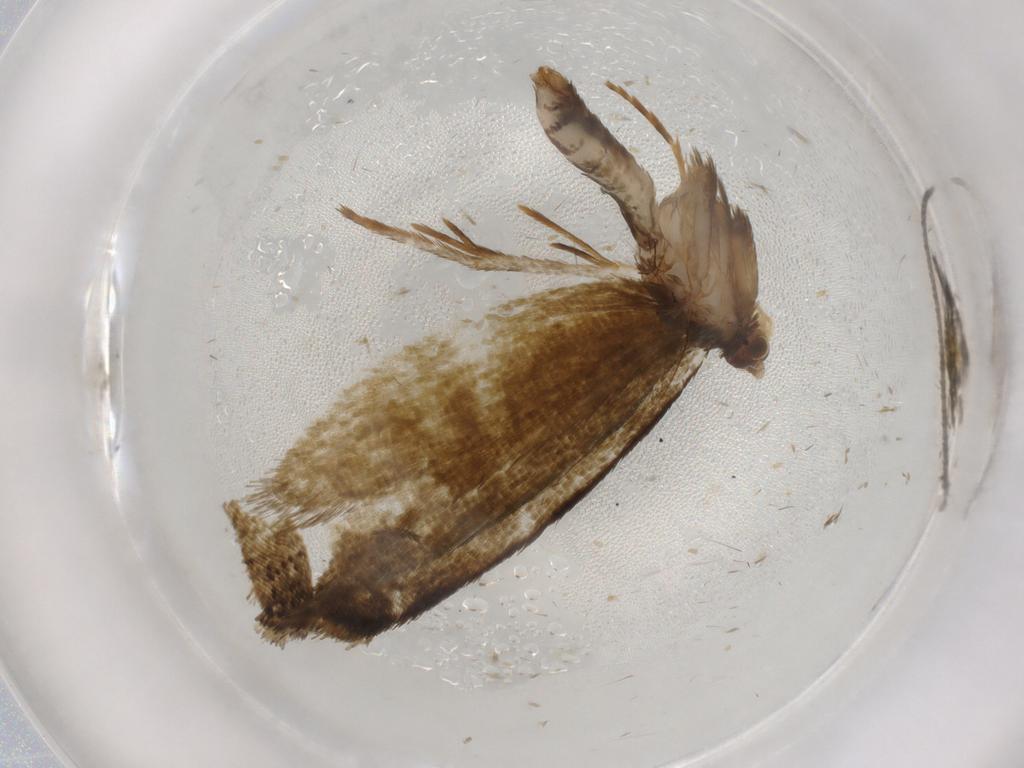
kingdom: Animalia
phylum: Arthropoda
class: Insecta
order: Lepidoptera
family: Tineidae
